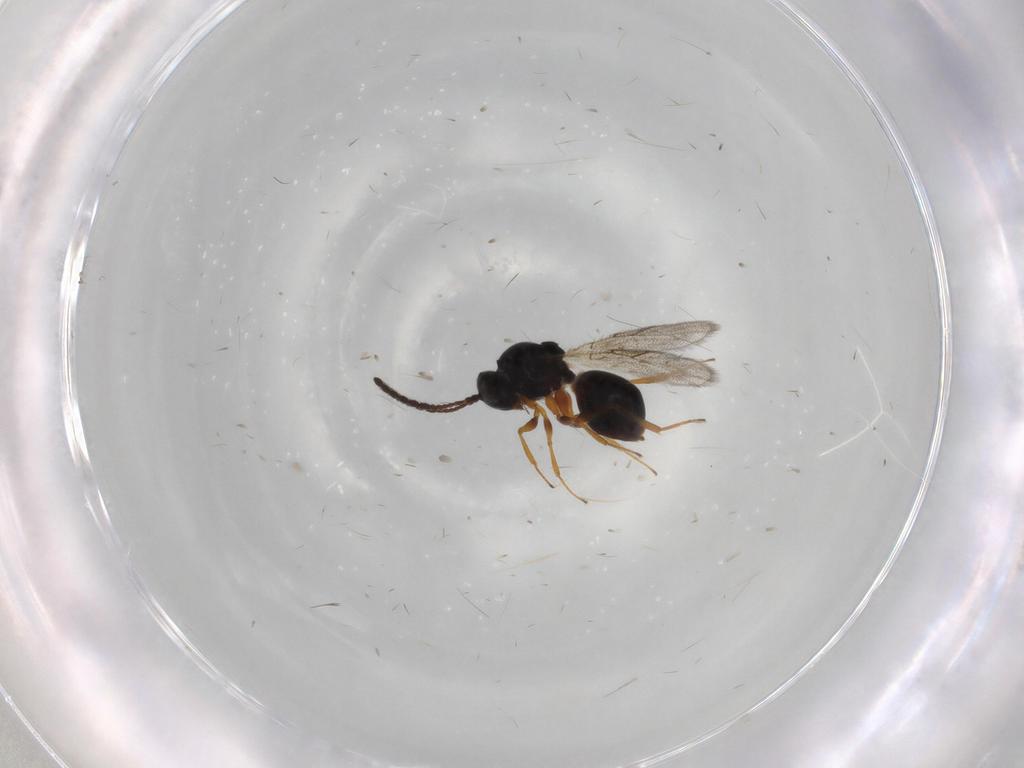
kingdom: Animalia
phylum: Arthropoda
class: Insecta
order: Hymenoptera
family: Figitidae
